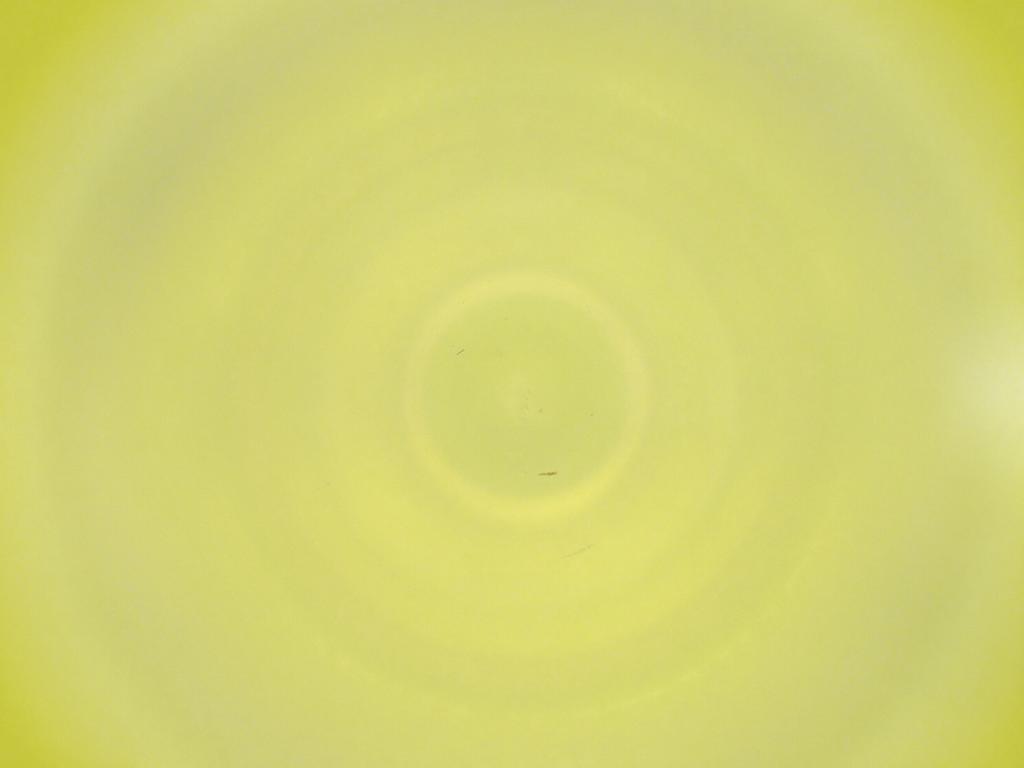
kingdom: Animalia
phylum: Arthropoda
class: Insecta
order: Diptera
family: Cecidomyiidae
